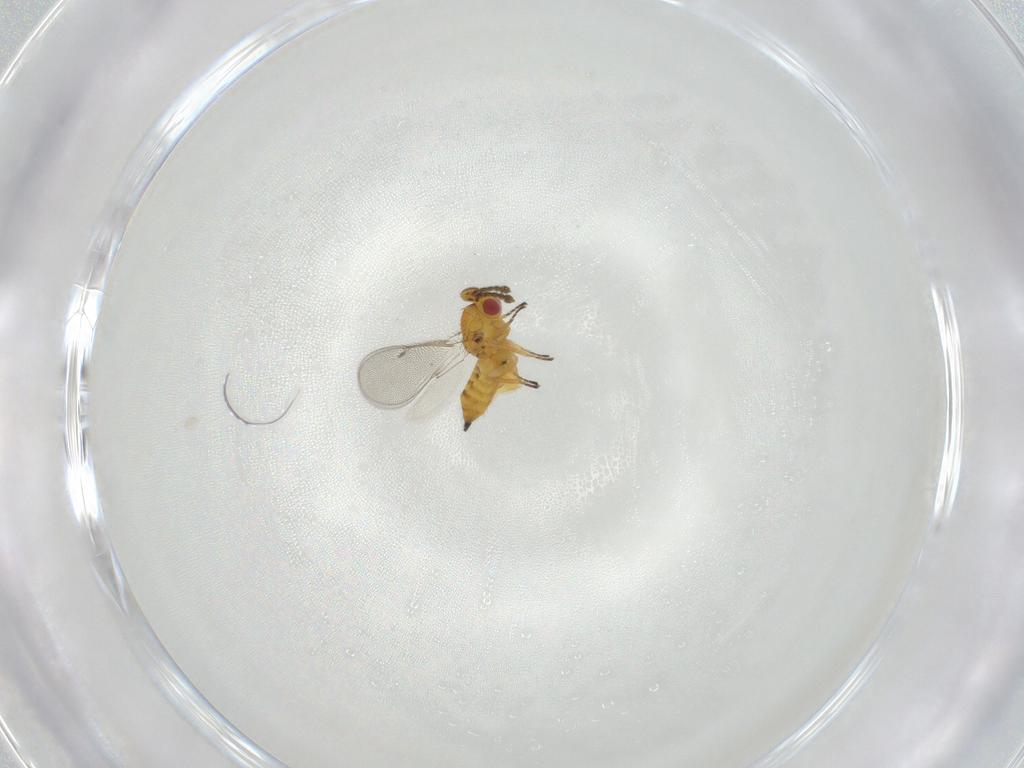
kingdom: Animalia
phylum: Arthropoda
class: Insecta
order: Hymenoptera
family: Eulophidae
